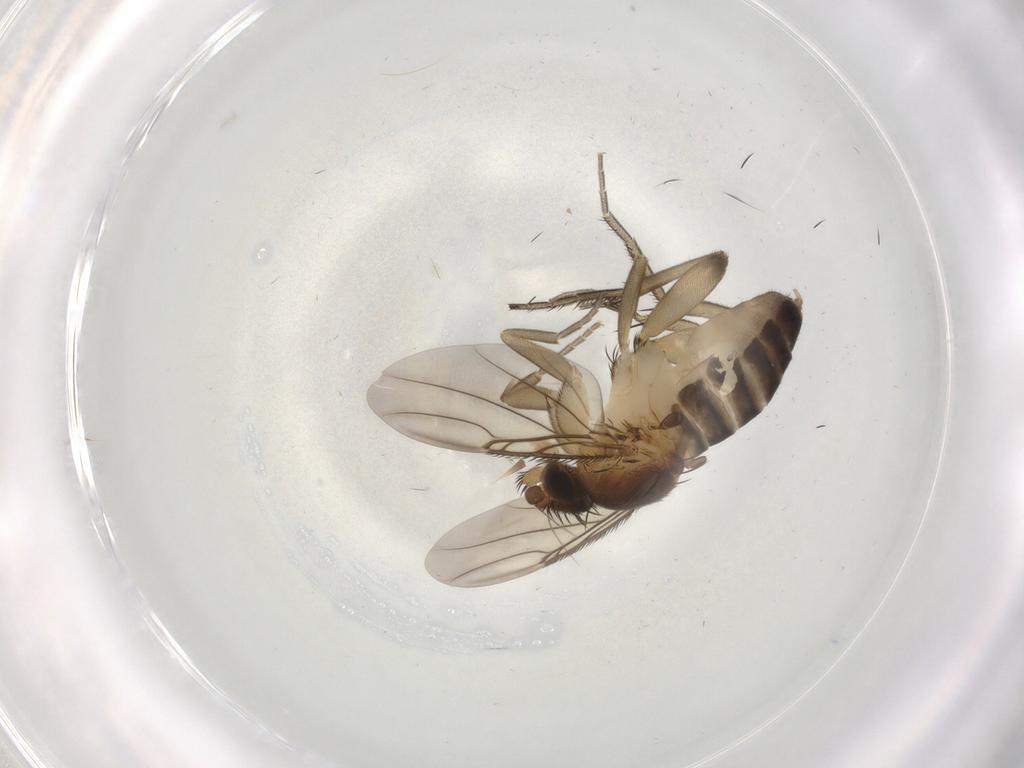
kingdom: Animalia
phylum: Arthropoda
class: Insecta
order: Diptera
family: Phoridae
